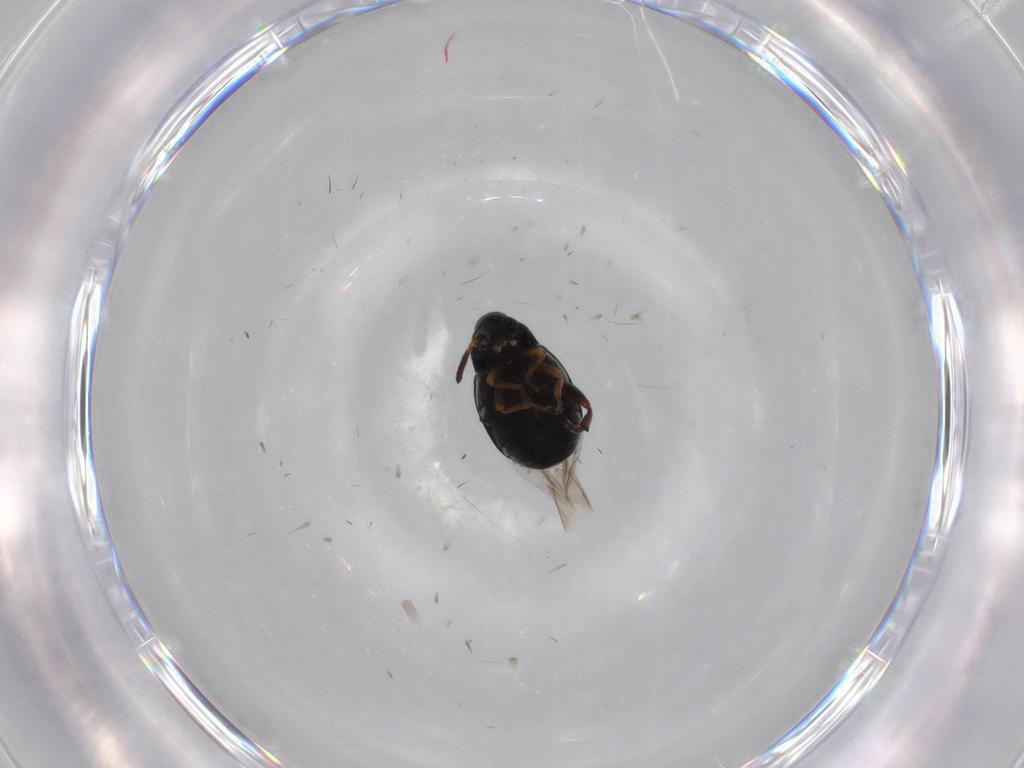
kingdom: Animalia
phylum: Arthropoda
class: Insecta
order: Coleoptera
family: Chrysomelidae
